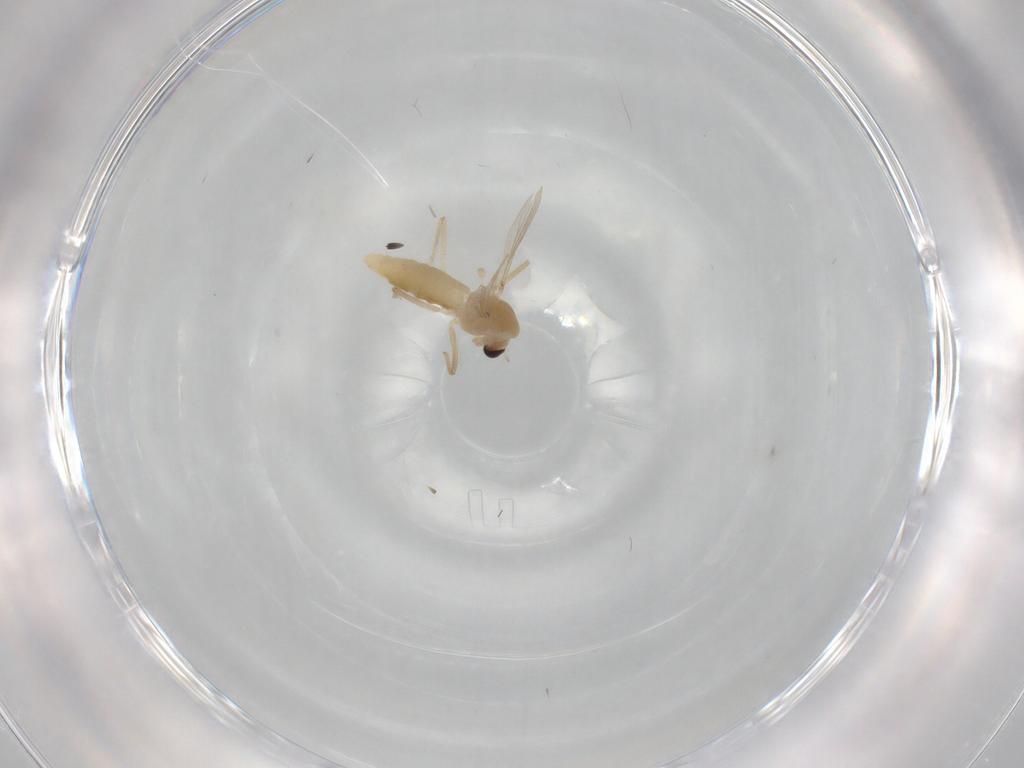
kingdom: Animalia
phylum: Arthropoda
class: Insecta
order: Diptera
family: Chironomidae
